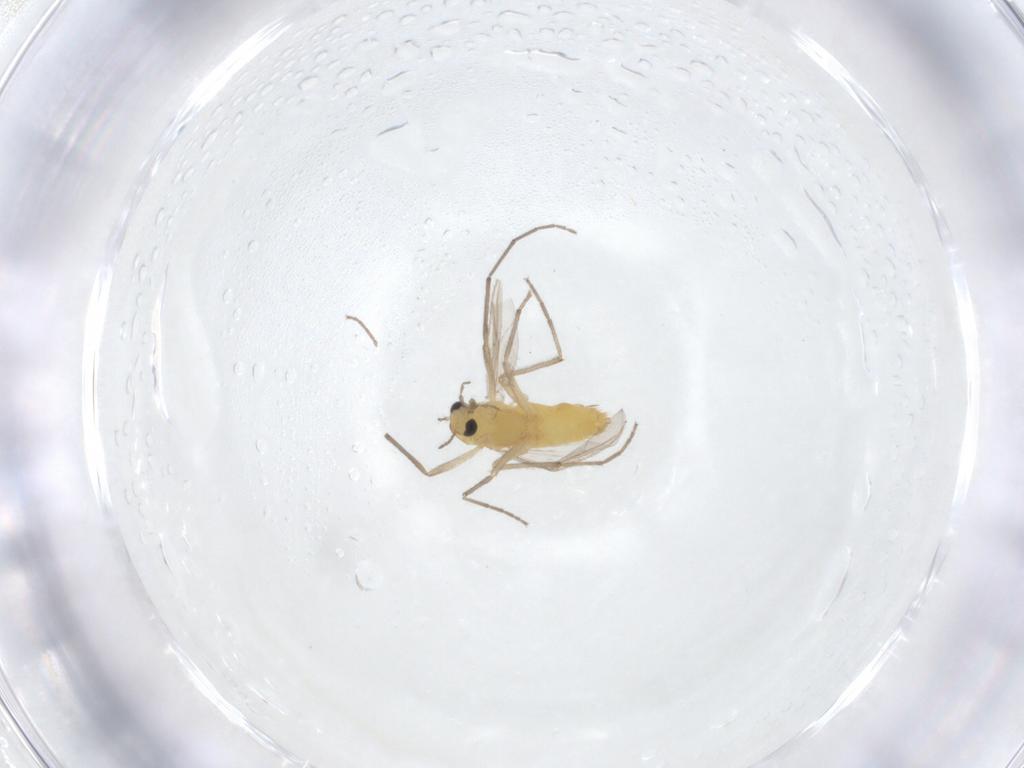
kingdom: Animalia
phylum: Arthropoda
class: Insecta
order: Diptera
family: Chironomidae
